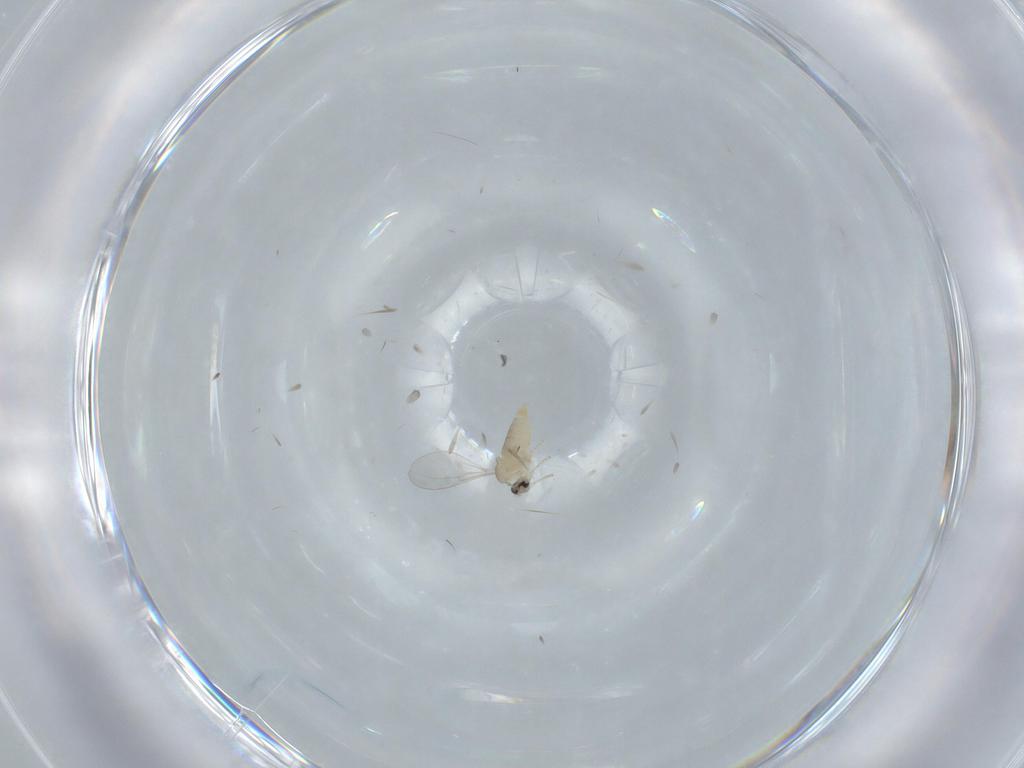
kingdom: Animalia
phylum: Arthropoda
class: Insecta
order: Diptera
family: Cecidomyiidae
